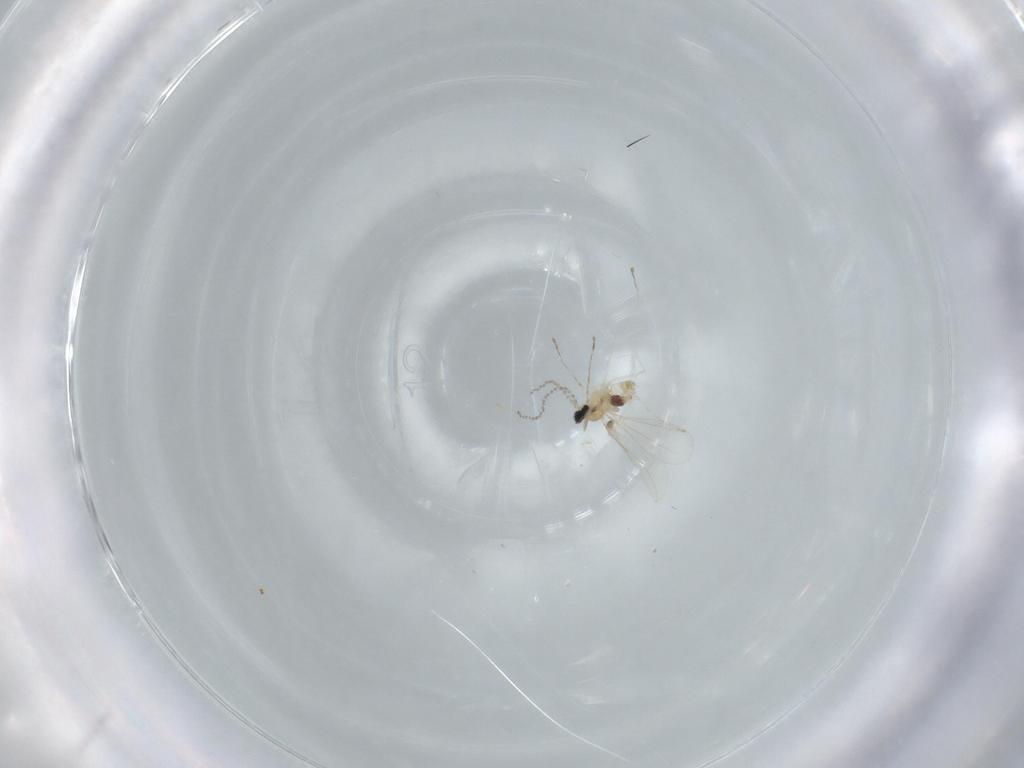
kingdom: Animalia
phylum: Arthropoda
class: Insecta
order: Diptera
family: Cecidomyiidae
